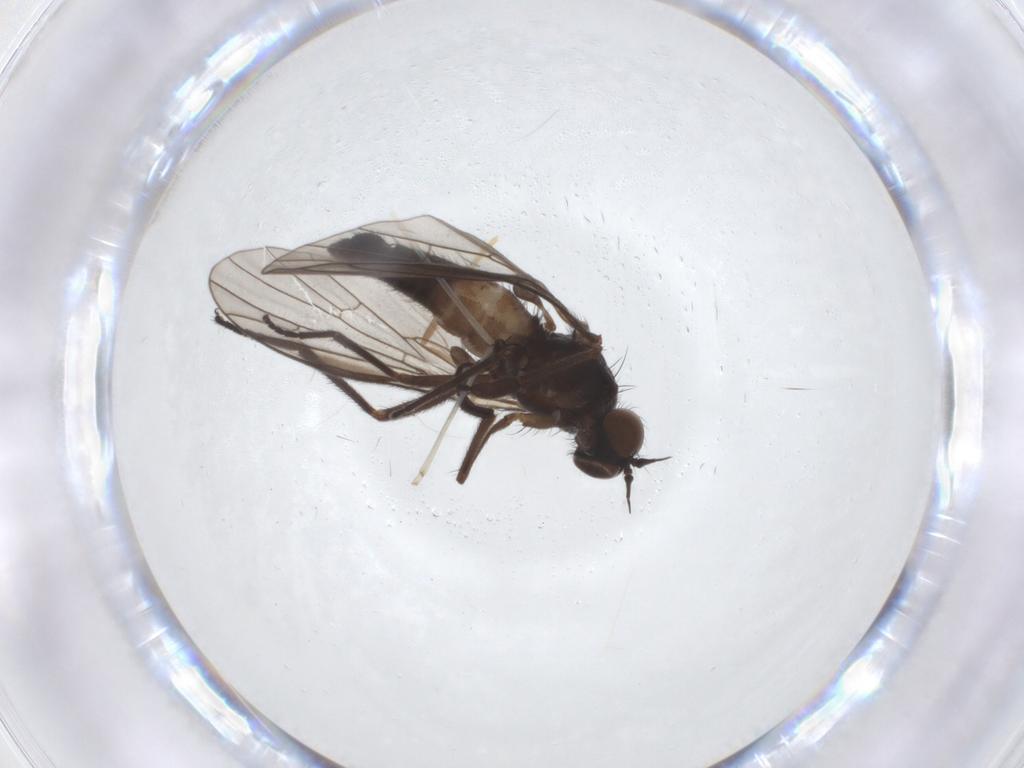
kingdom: Animalia
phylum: Arthropoda
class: Insecta
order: Diptera
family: Empididae
